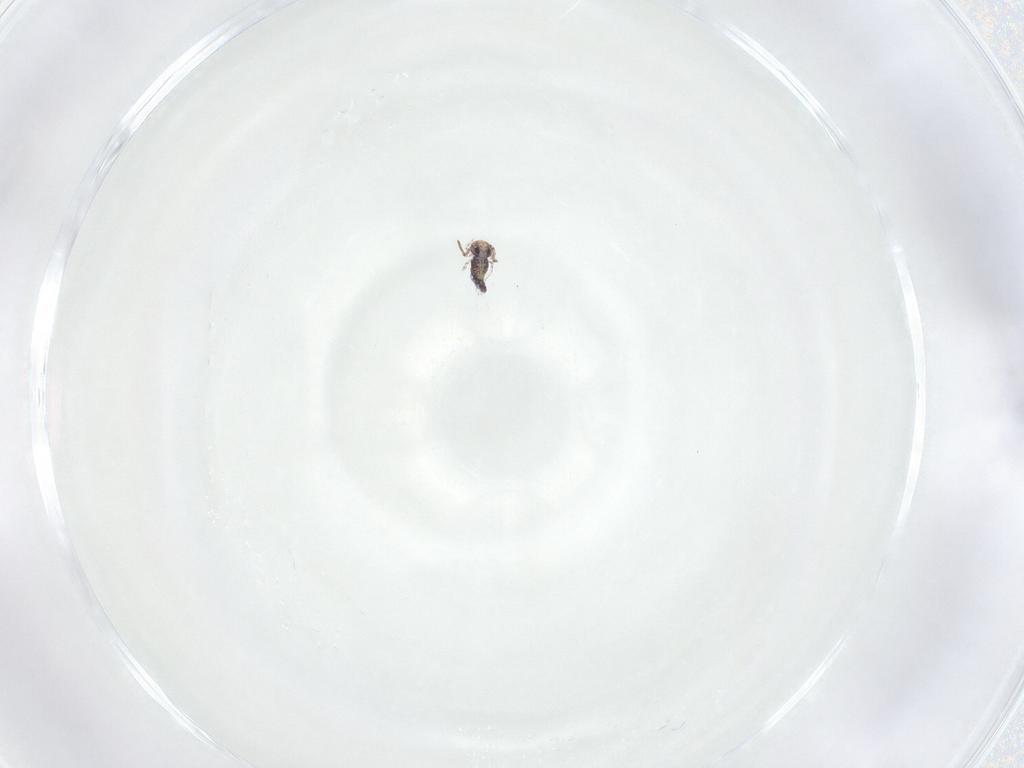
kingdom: Animalia
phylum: Arthropoda
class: Collembola
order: Symphypleona
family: Bourletiellidae
